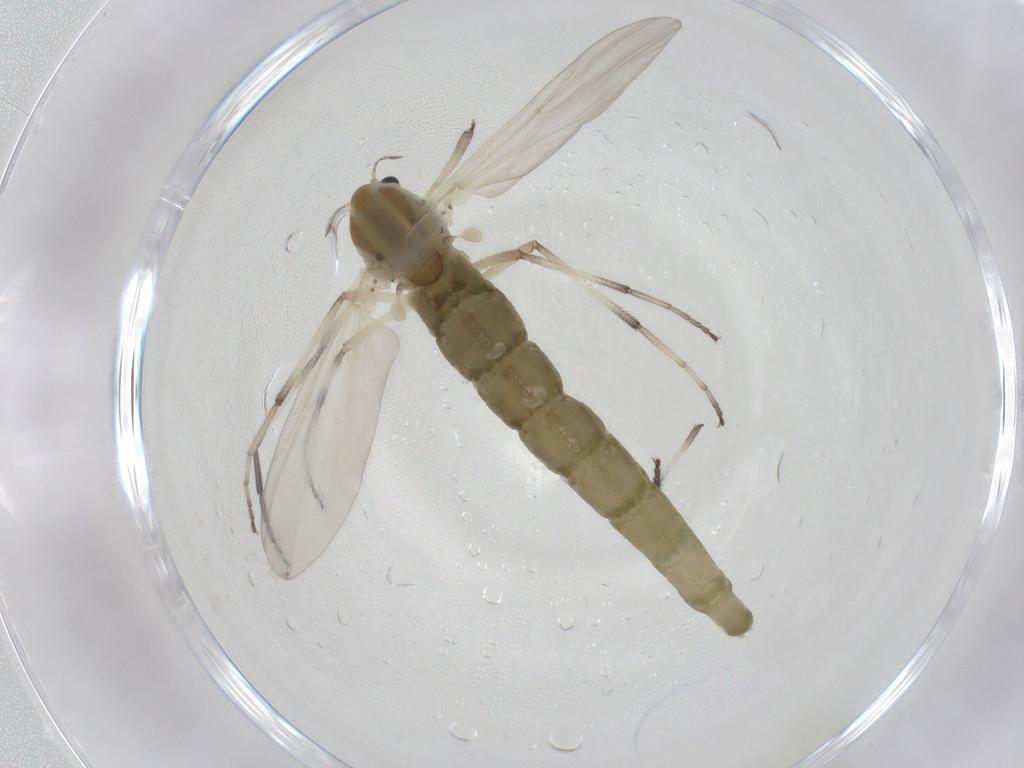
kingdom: Animalia
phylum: Arthropoda
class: Insecta
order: Diptera
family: Chironomidae
